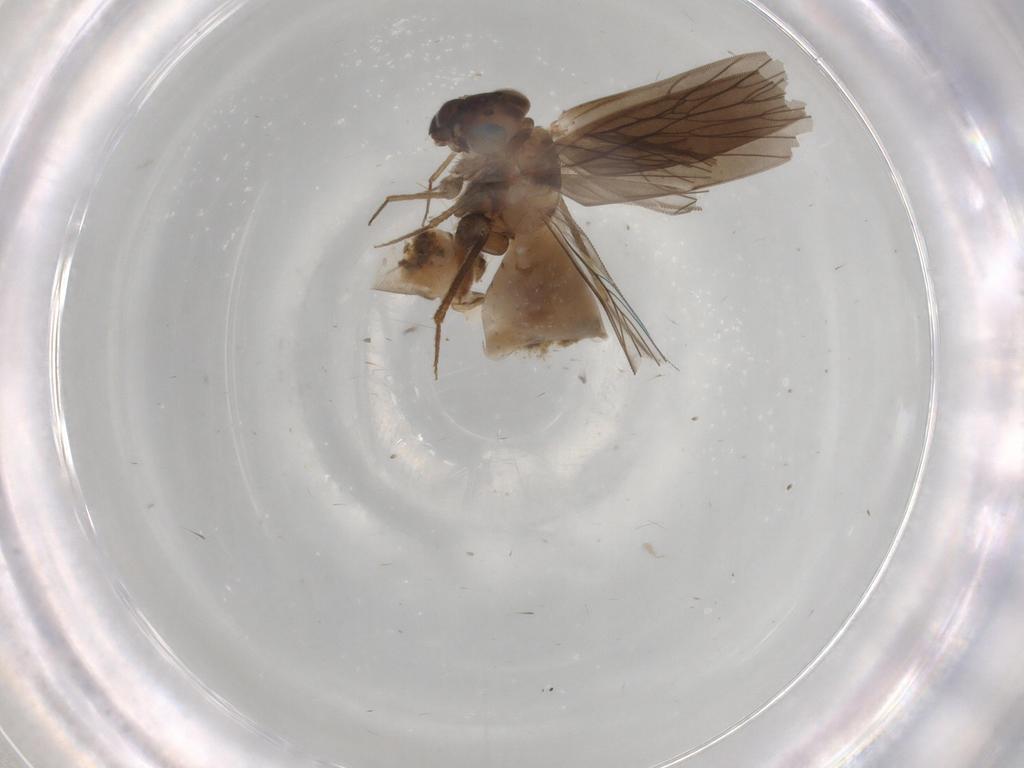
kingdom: Animalia
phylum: Arthropoda
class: Insecta
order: Psocodea
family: Lepidopsocidae
